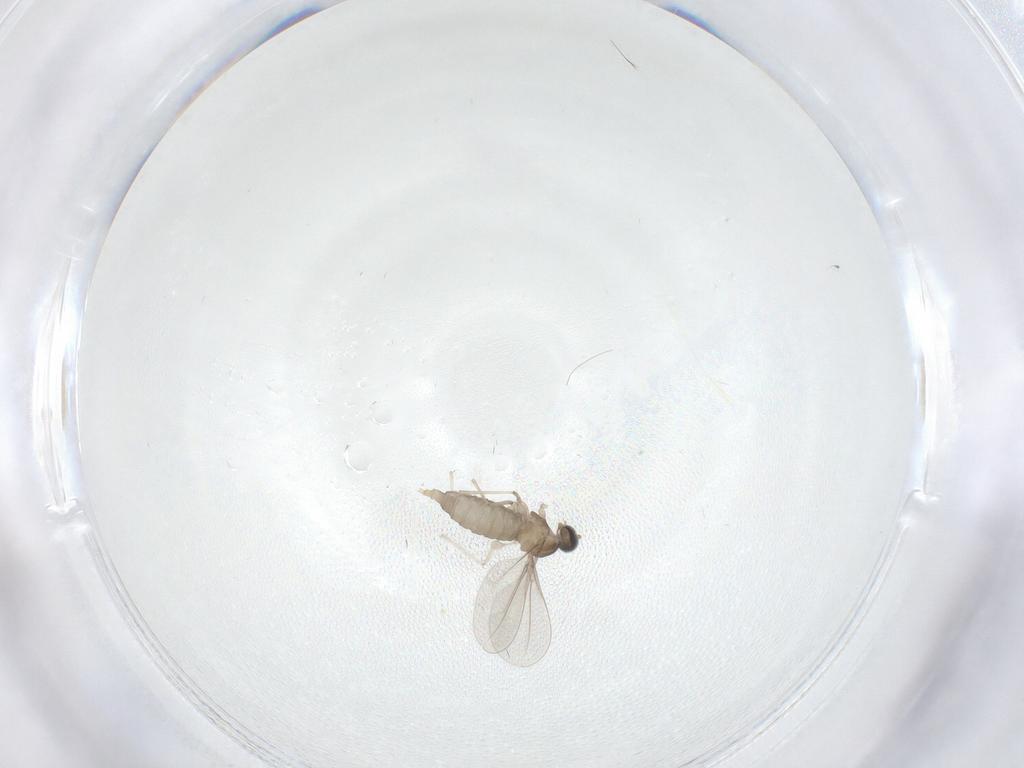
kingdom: Animalia
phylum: Arthropoda
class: Insecta
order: Diptera
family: Cecidomyiidae
